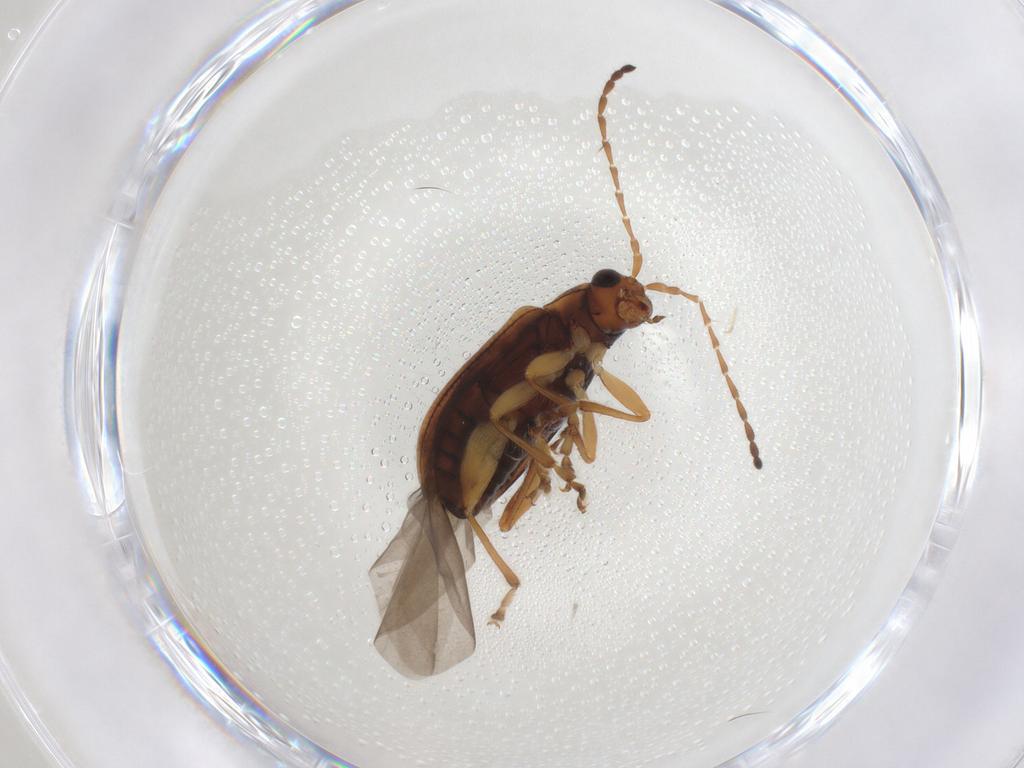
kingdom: Animalia
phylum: Arthropoda
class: Insecta
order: Coleoptera
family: Chrysomelidae
